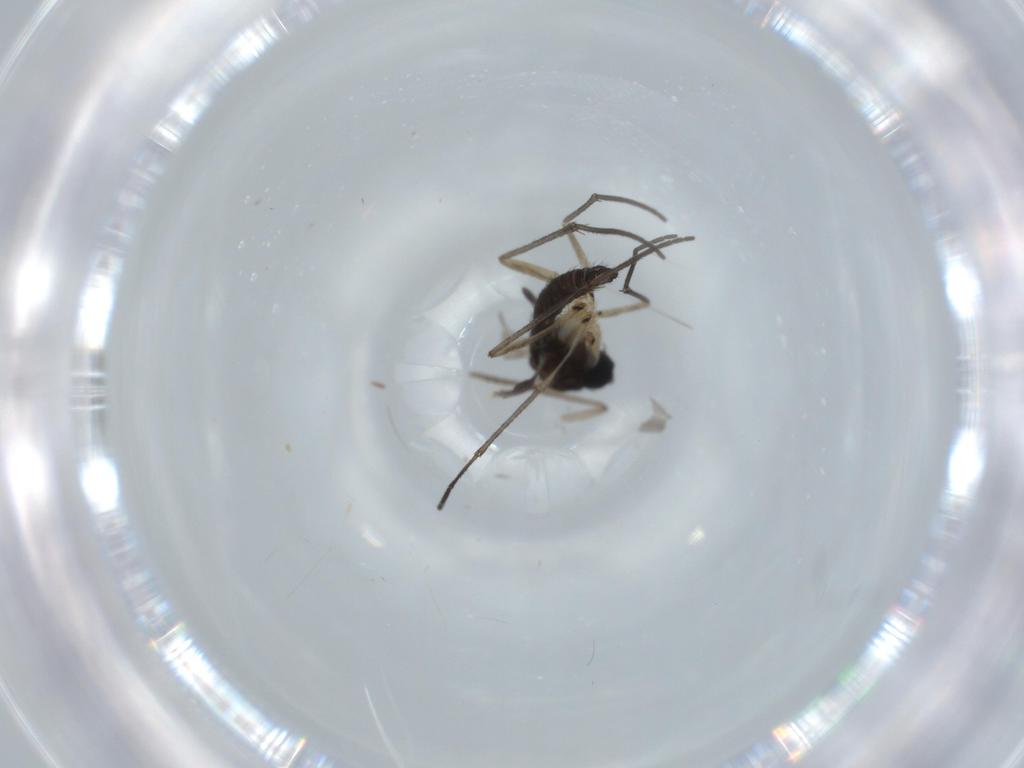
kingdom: Animalia
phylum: Arthropoda
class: Insecta
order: Diptera
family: Sciaridae
